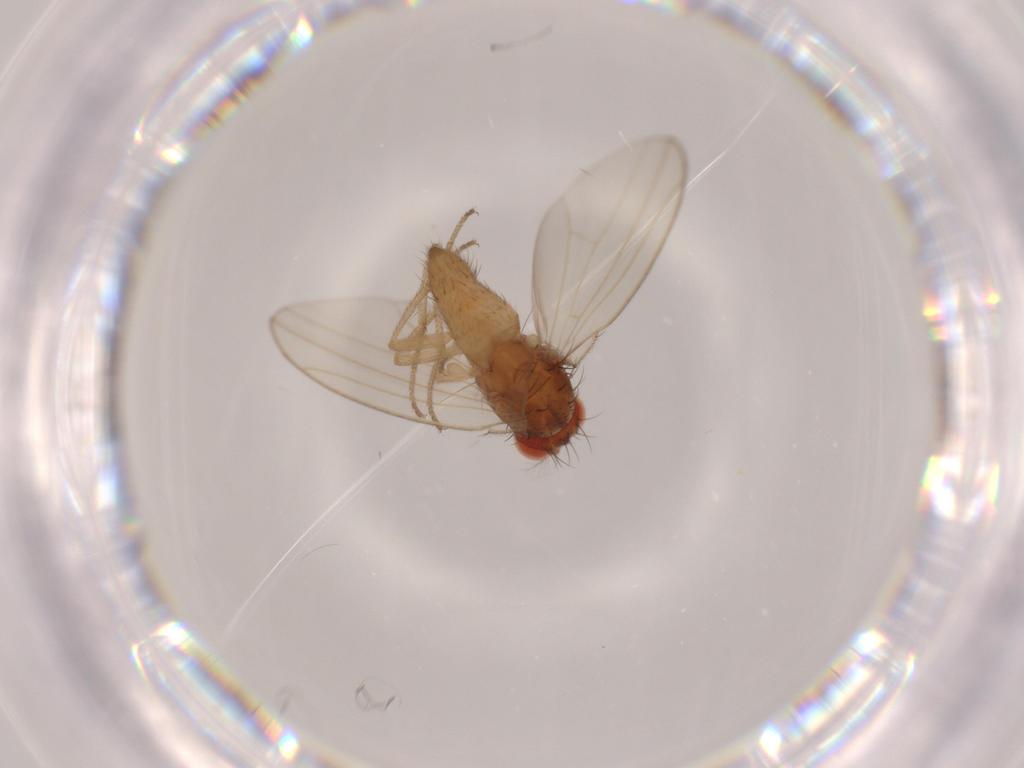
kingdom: Animalia
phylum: Arthropoda
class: Insecta
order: Diptera
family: Drosophilidae
